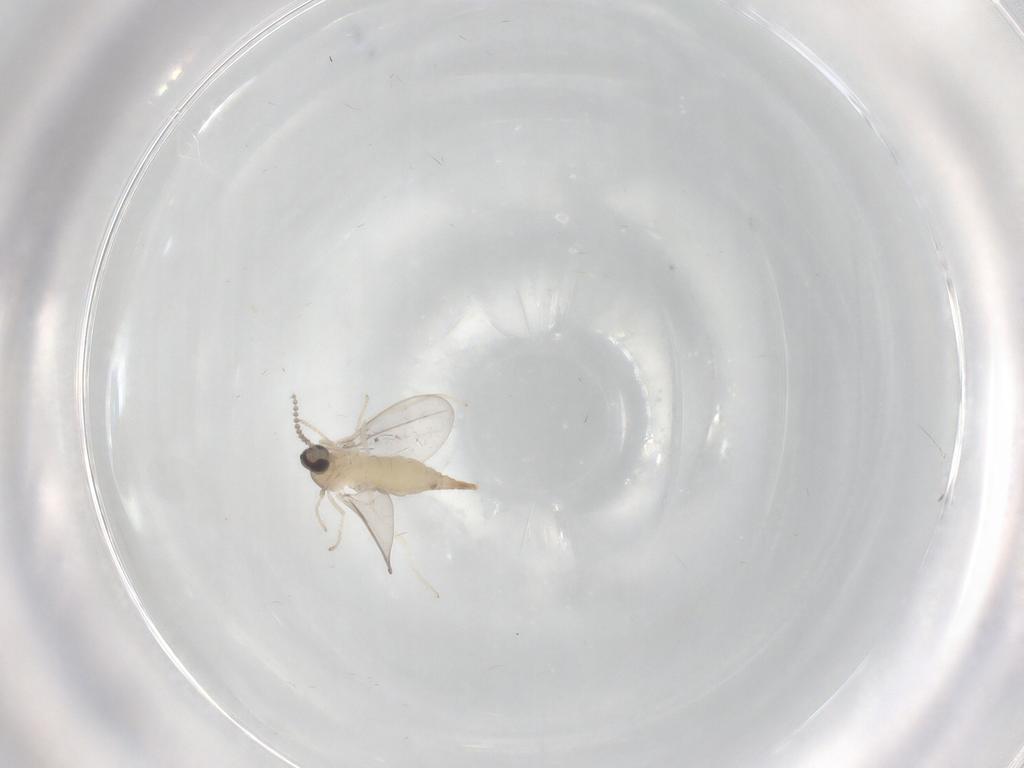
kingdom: Animalia
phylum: Arthropoda
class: Insecta
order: Diptera
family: Cecidomyiidae
